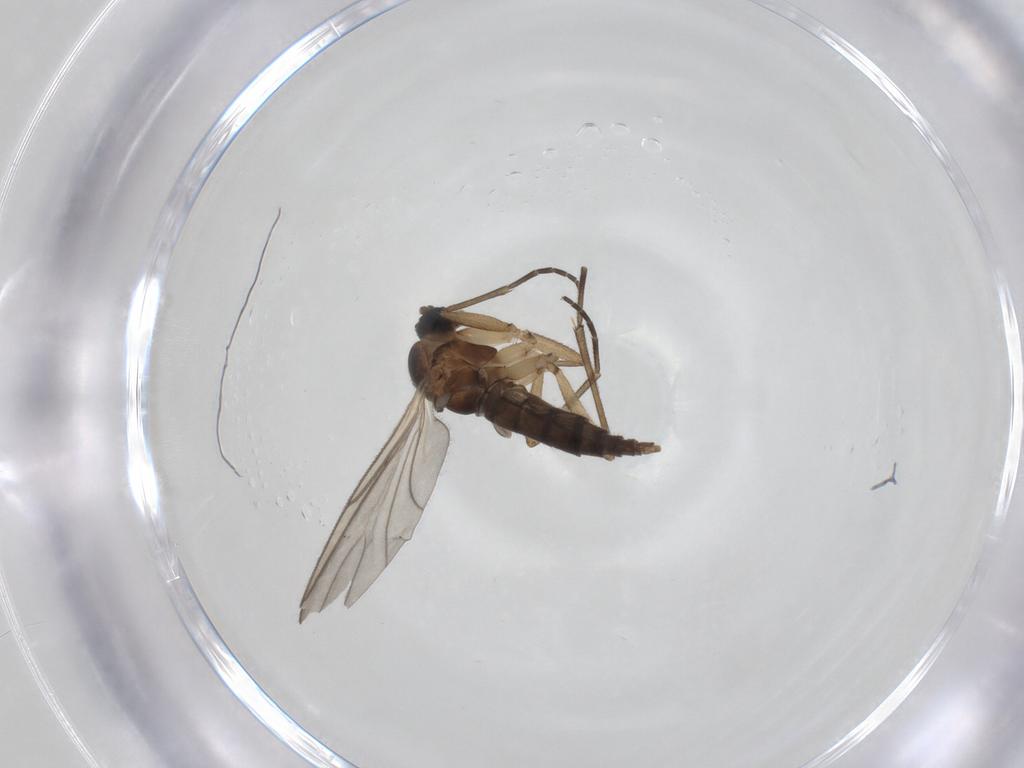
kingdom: Animalia
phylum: Arthropoda
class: Insecta
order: Diptera
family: Sciaridae
